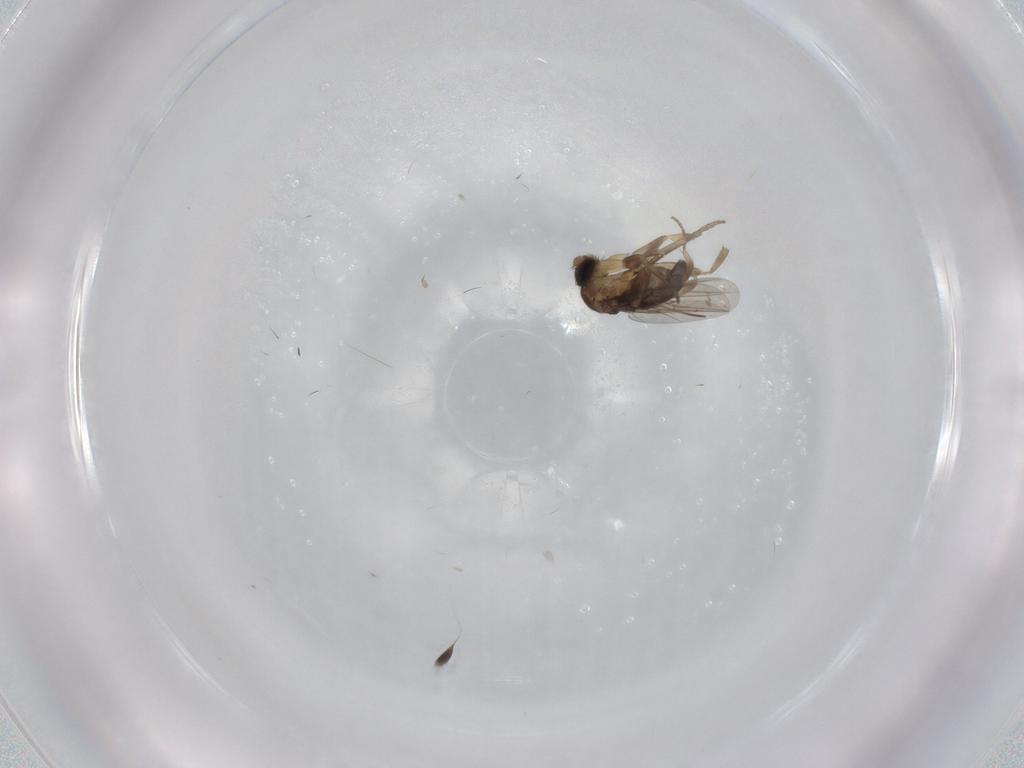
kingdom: Animalia
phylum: Arthropoda
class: Insecta
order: Diptera
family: Phoridae
